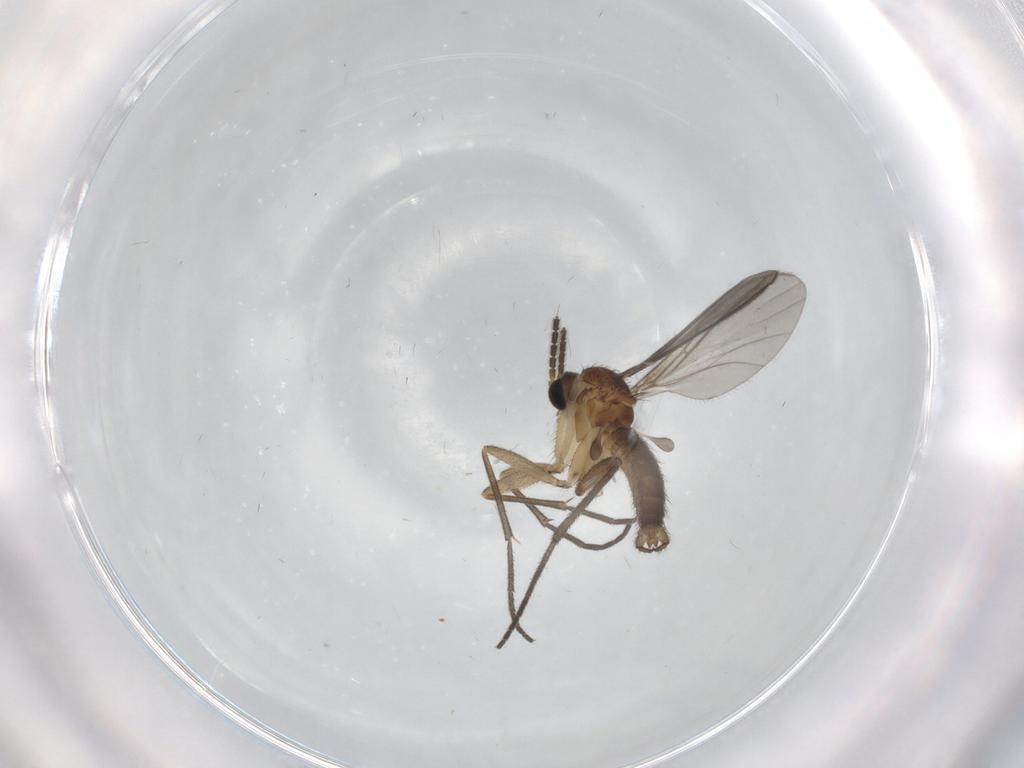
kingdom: Animalia
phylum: Arthropoda
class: Insecta
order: Diptera
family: Sciaridae
